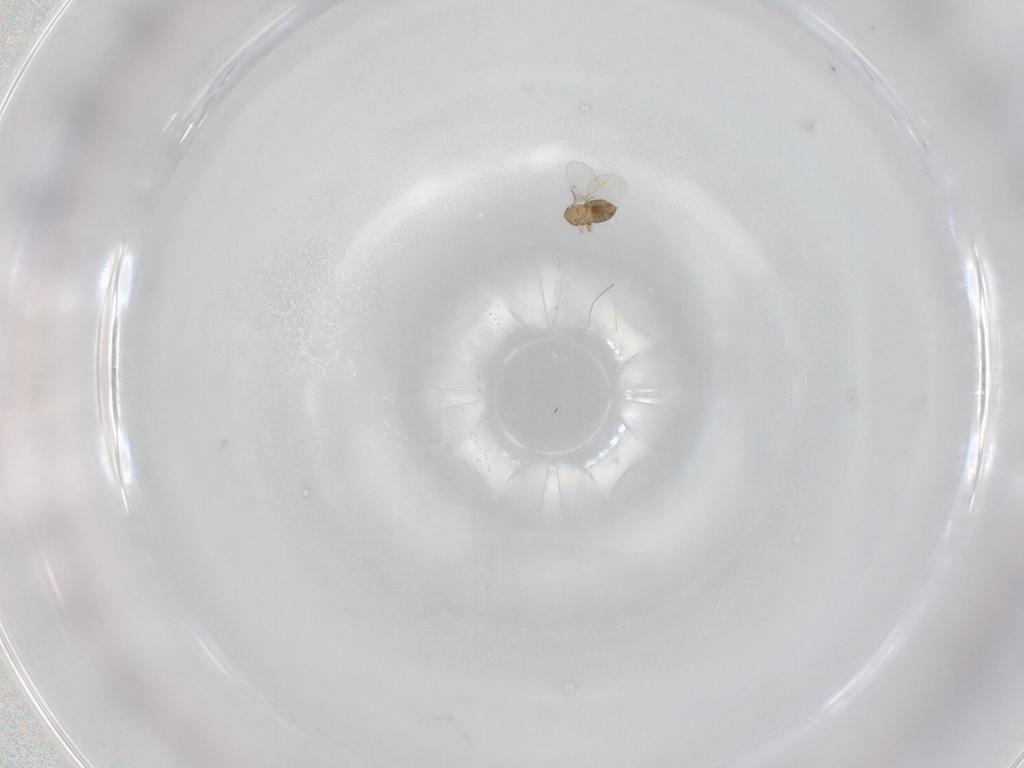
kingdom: Animalia
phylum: Arthropoda
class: Insecta
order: Hymenoptera
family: Trichogrammatidae
